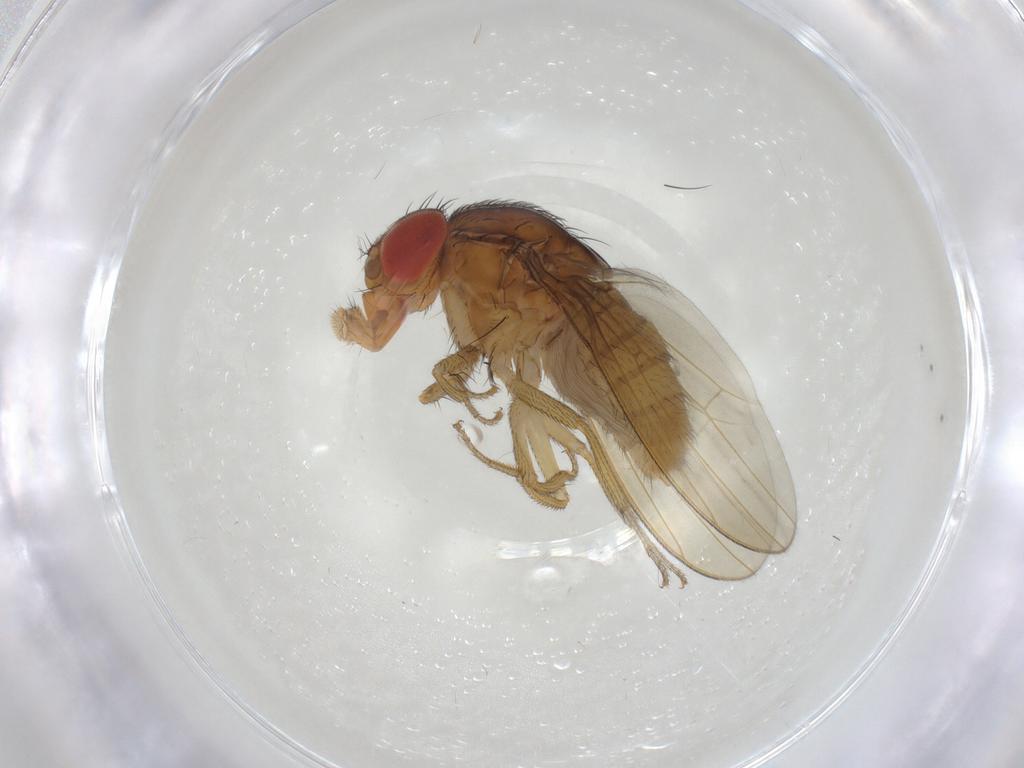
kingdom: Animalia
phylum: Arthropoda
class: Insecta
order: Diptera
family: Drosophilidae
